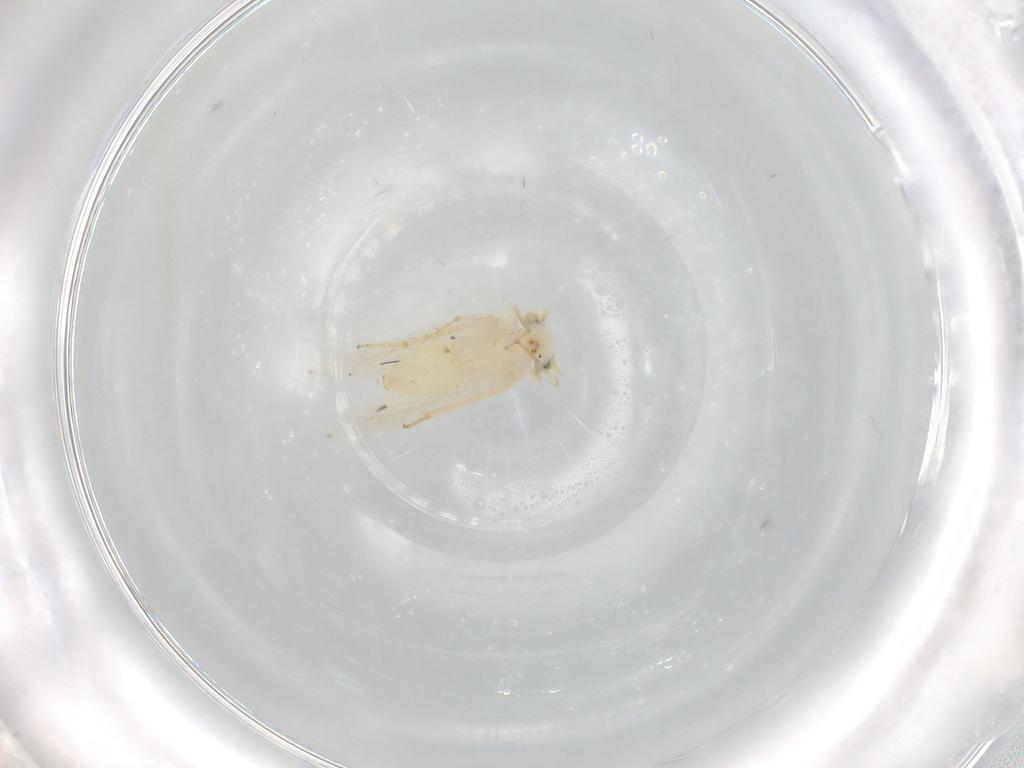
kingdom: Animalia
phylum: Arthropoda
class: Insecta
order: Psocodea
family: Lepidopsocidae
